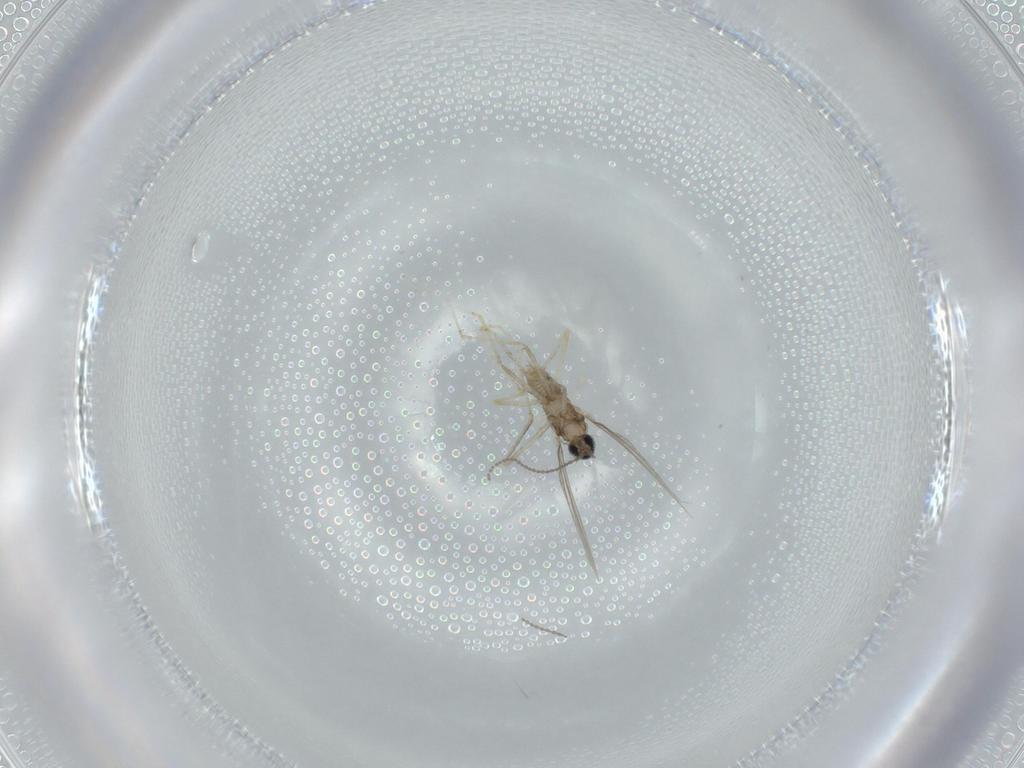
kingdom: Animalia
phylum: Arthropoda
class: Insecta
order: Diptera
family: Cecidomyiidae
